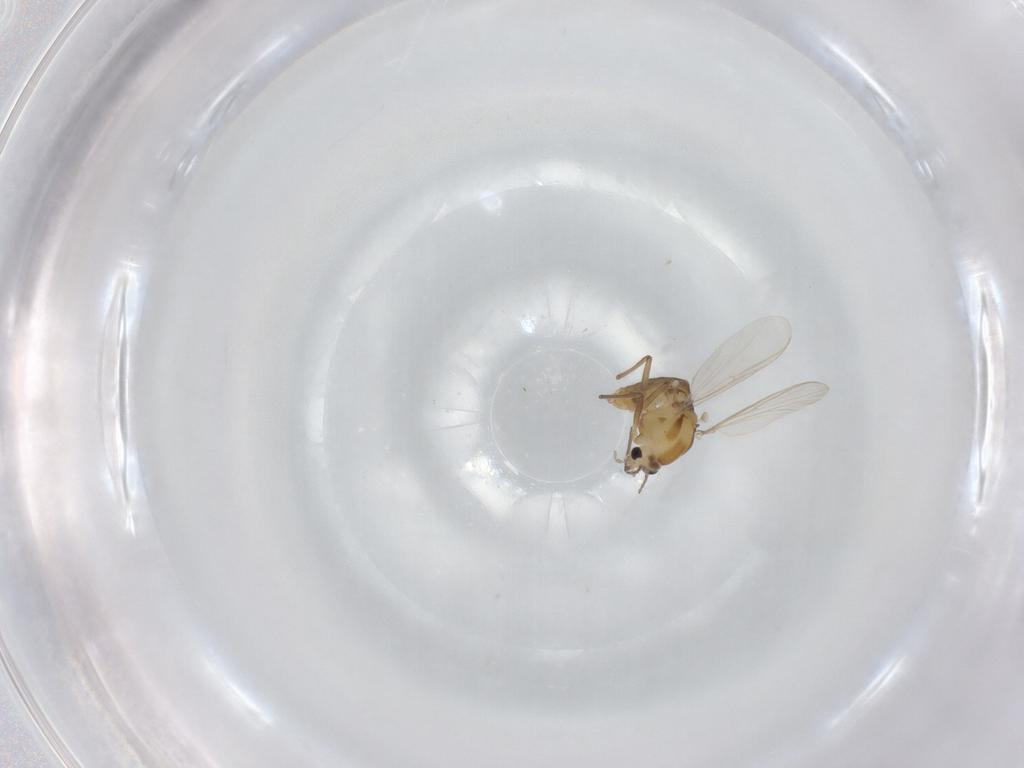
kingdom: Animalia
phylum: Arthropoda
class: Insecta
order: Diptera
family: Chironomidae
